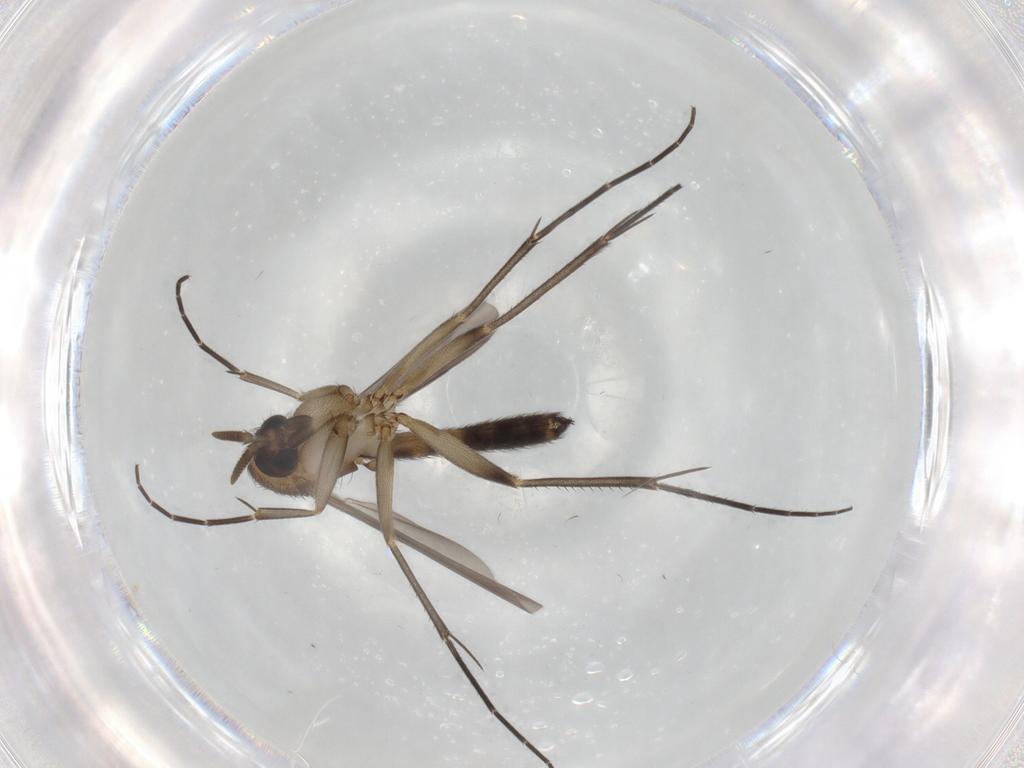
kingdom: Animalia
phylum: Arthropoda
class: Insecta
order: Diptera
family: Mycetophilidae
